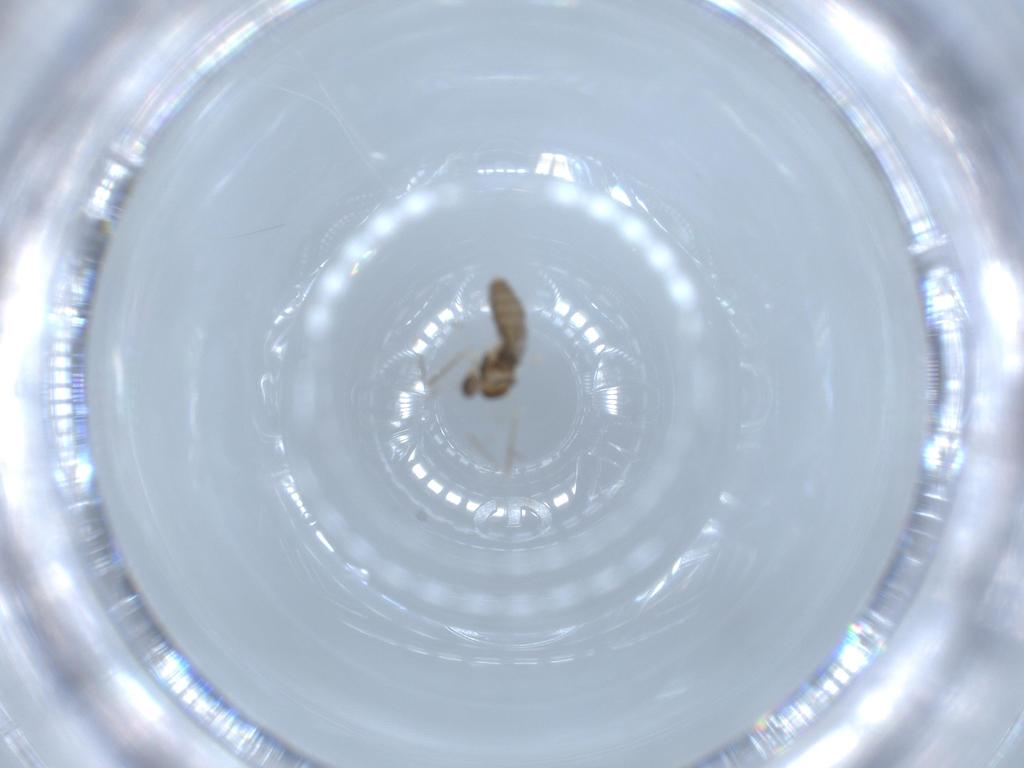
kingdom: Animalia
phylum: Arthropoda
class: Insecta
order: Diptera
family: Cecidomyiidae
